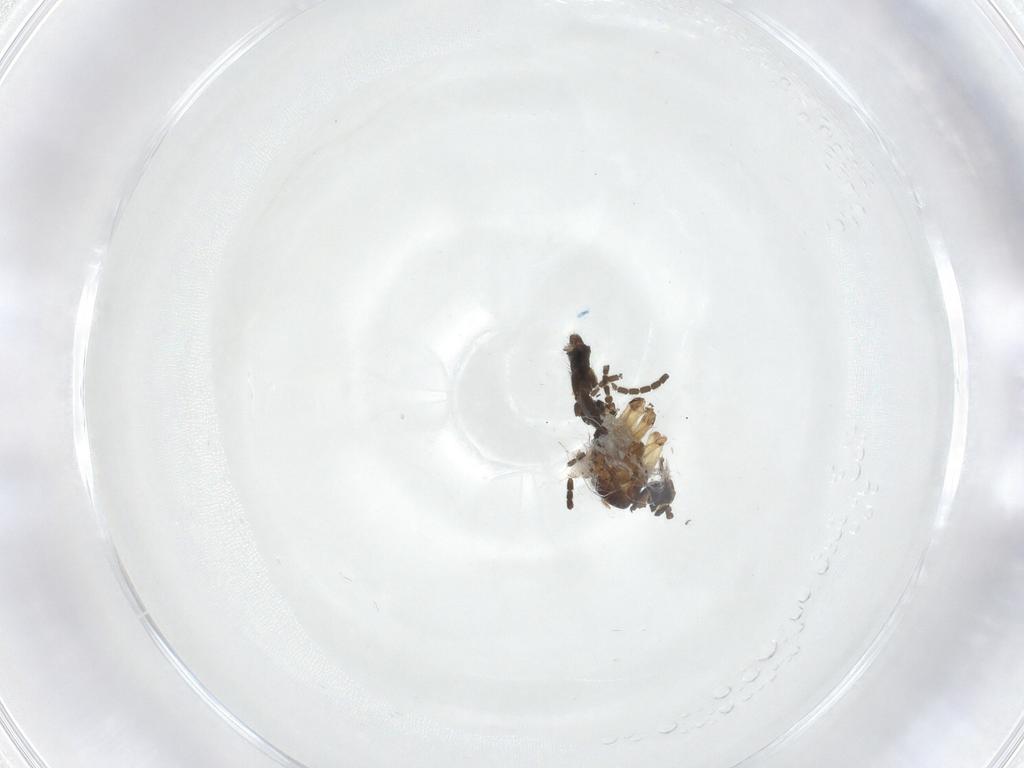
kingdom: Animalia
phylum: Arthropoda
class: Insecta
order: Diptera
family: Sciaridae
